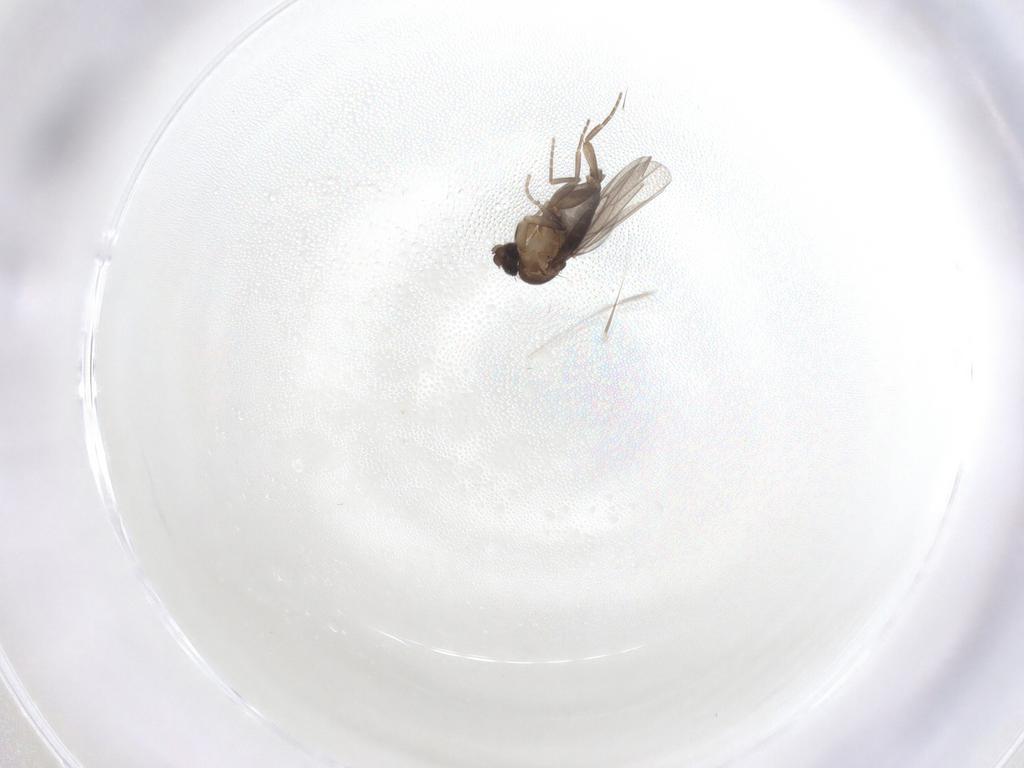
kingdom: Animalia
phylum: Arthropoda
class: Insecta
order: Diptera
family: Phoridae
